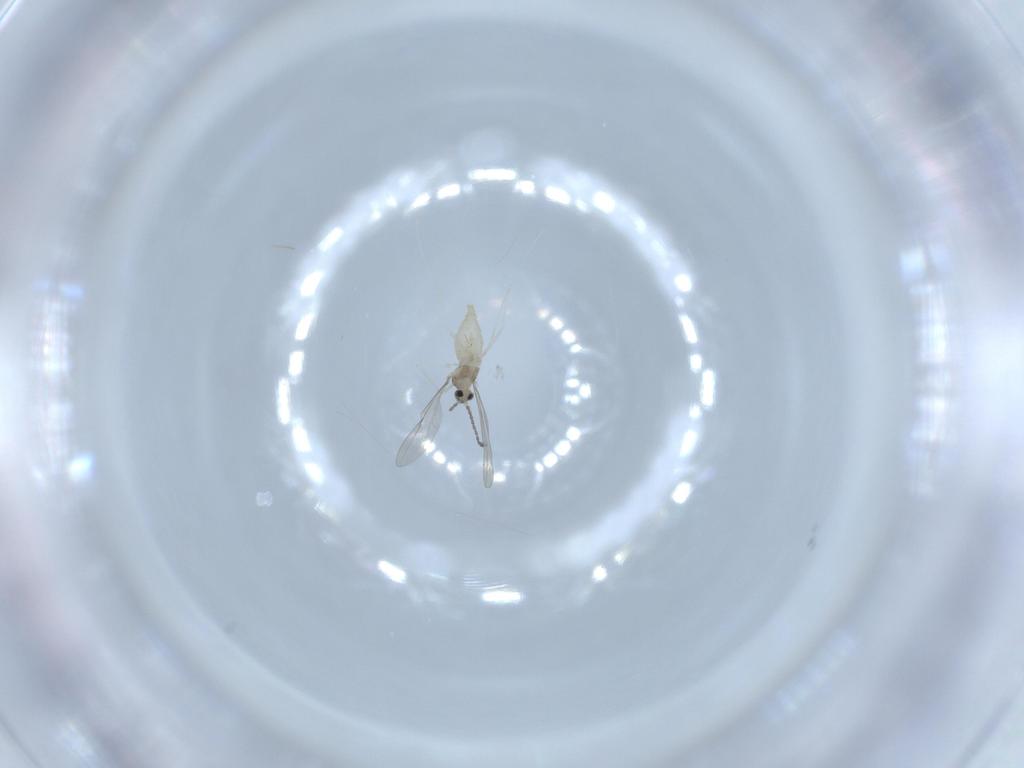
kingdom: Animalia
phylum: Arthropoda
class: Insecta
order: Diptera
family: Cecidomyiidae
